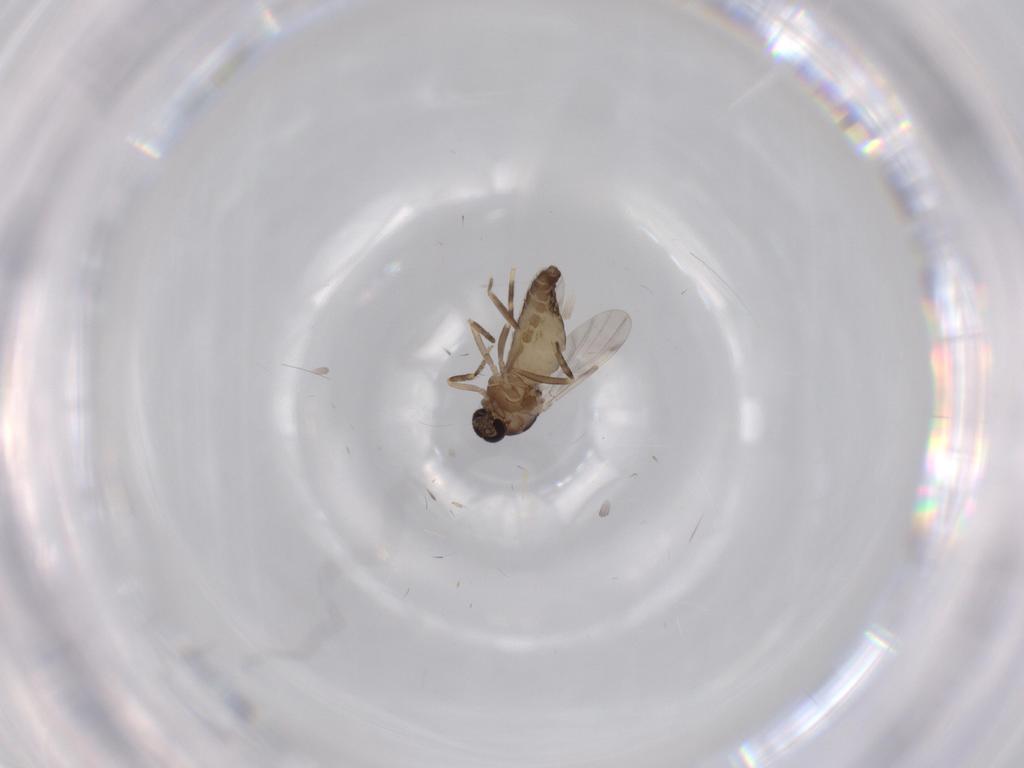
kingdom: Animalia
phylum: Arthropoda
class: Insecta
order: Diptera
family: Ceratopogonidae
